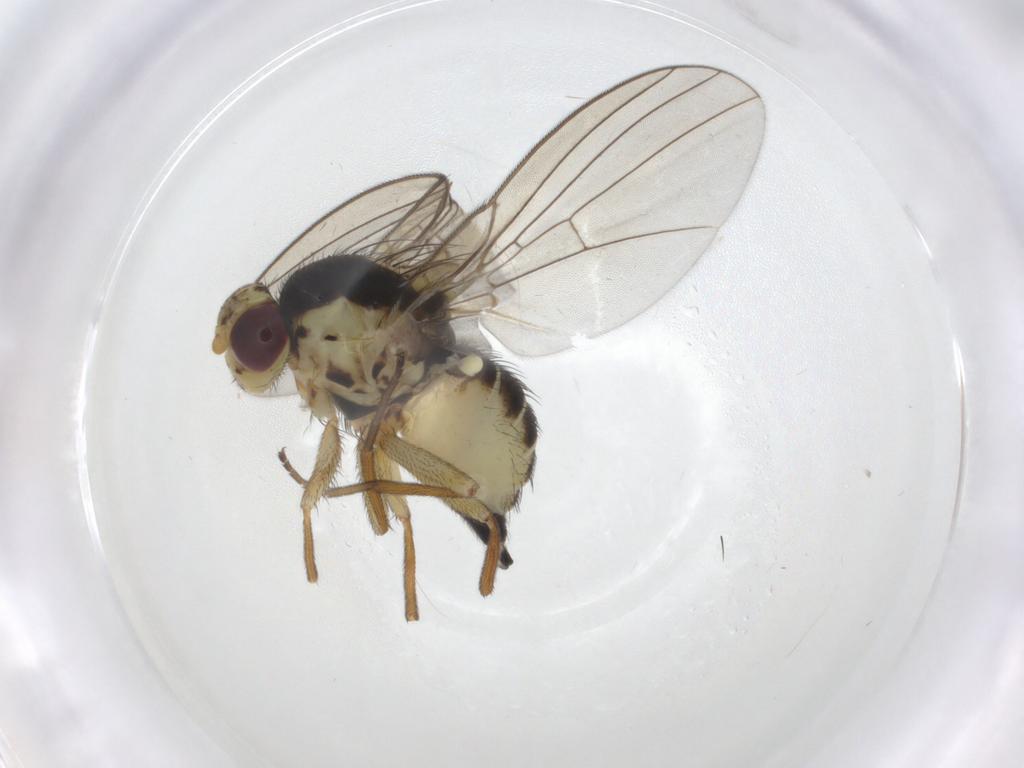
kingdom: Animalia
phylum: Arthropoda
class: Insecta
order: Diptera
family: Agromyzidae
